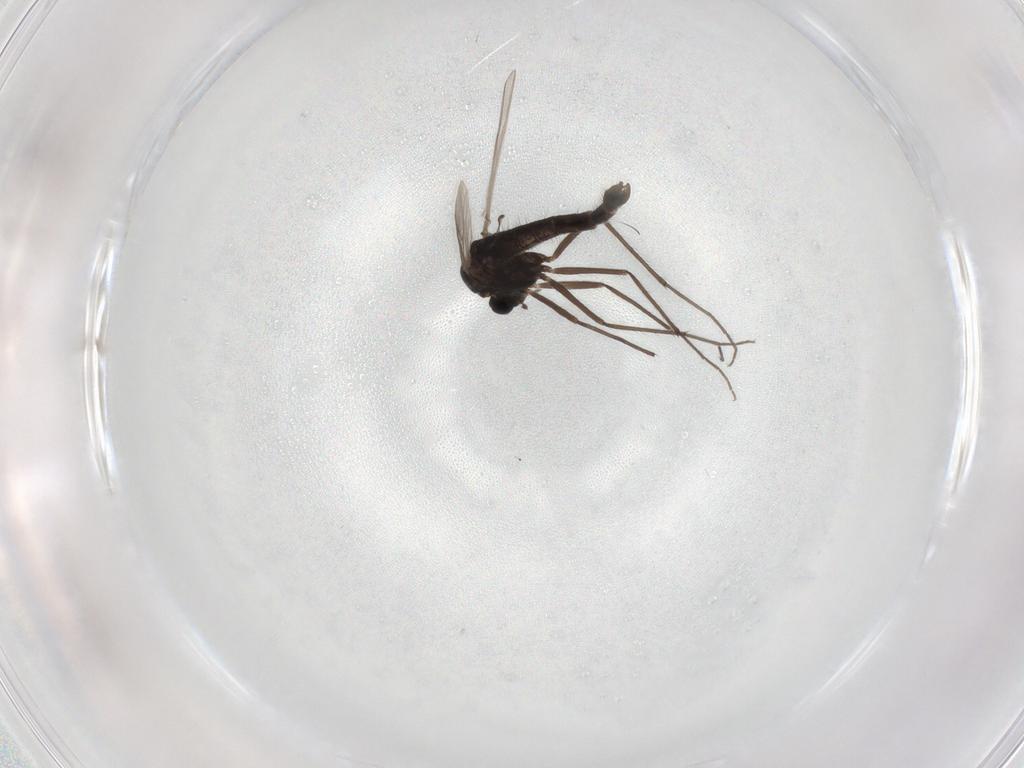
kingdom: Animalia
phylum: Arthropoda
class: Insecta
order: Diptera
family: Chironomidae
